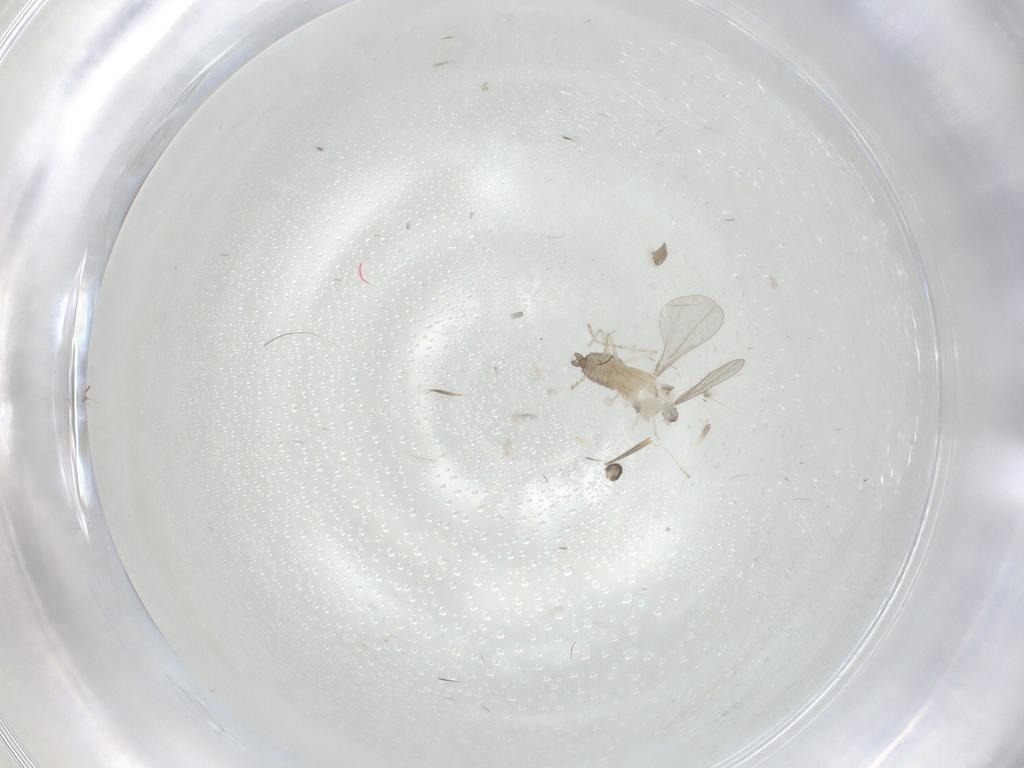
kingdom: Animalia
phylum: Arthropoda
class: Insecta
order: Diptera
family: Cecidomyiidae
